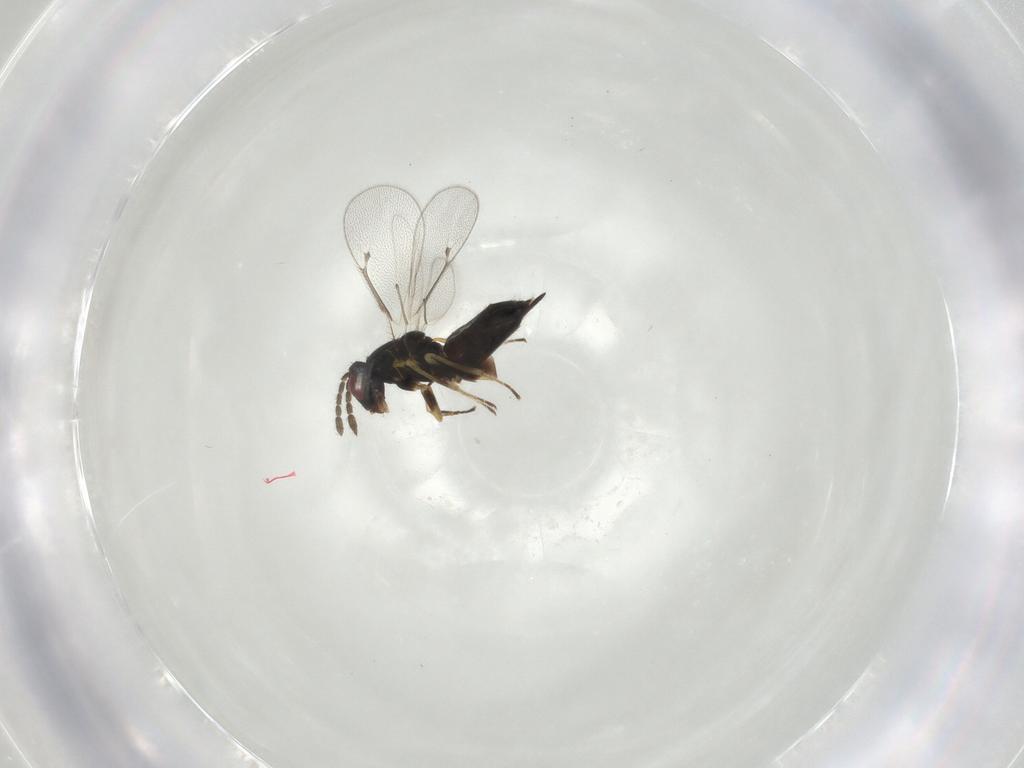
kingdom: Animalia
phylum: Arthropoda
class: Insecta
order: Hymenoptera
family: Eulophidae
